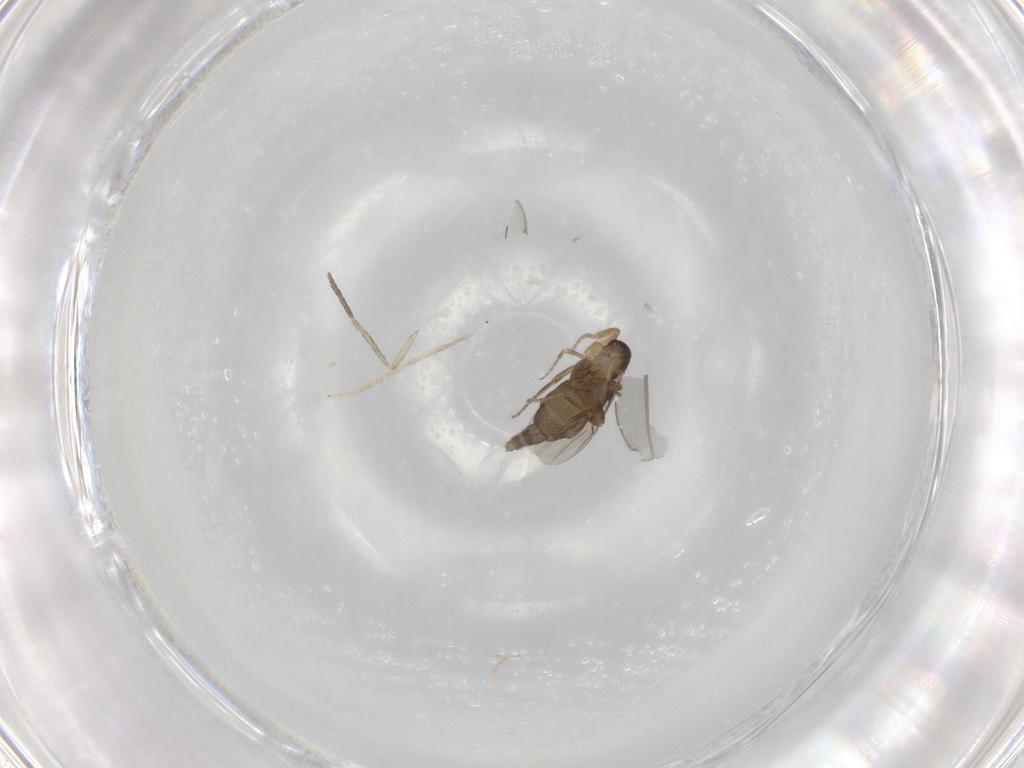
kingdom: Animalia
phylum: Arthropoda
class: Insecta
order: Diptera
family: Phoridae
